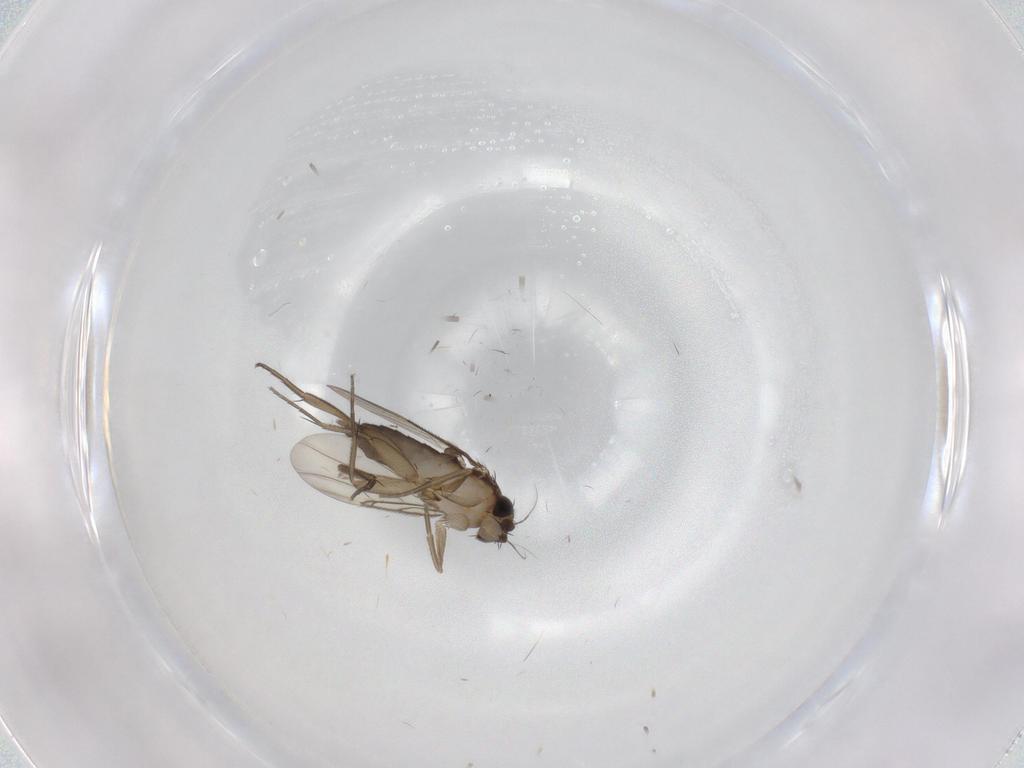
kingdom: Animalia
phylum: Arthropoda
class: Insecta
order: Diptera
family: Phoridae
